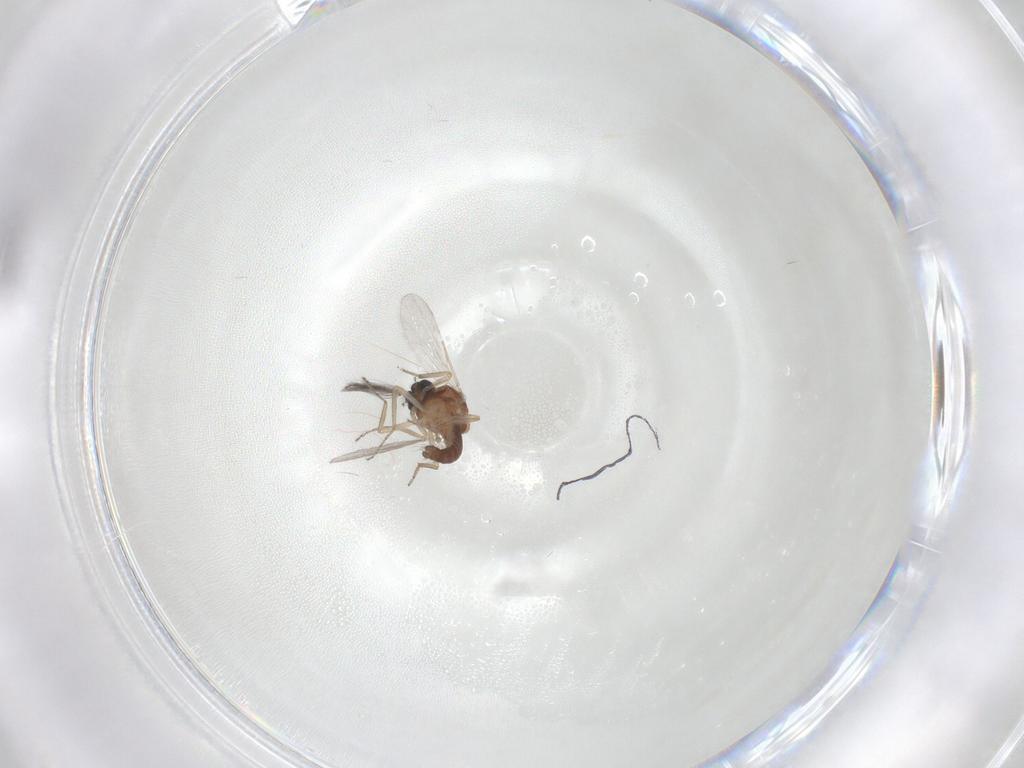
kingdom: Animalia
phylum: Arthropoda
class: Insecta
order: Diptera
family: Ceratopogonidae
